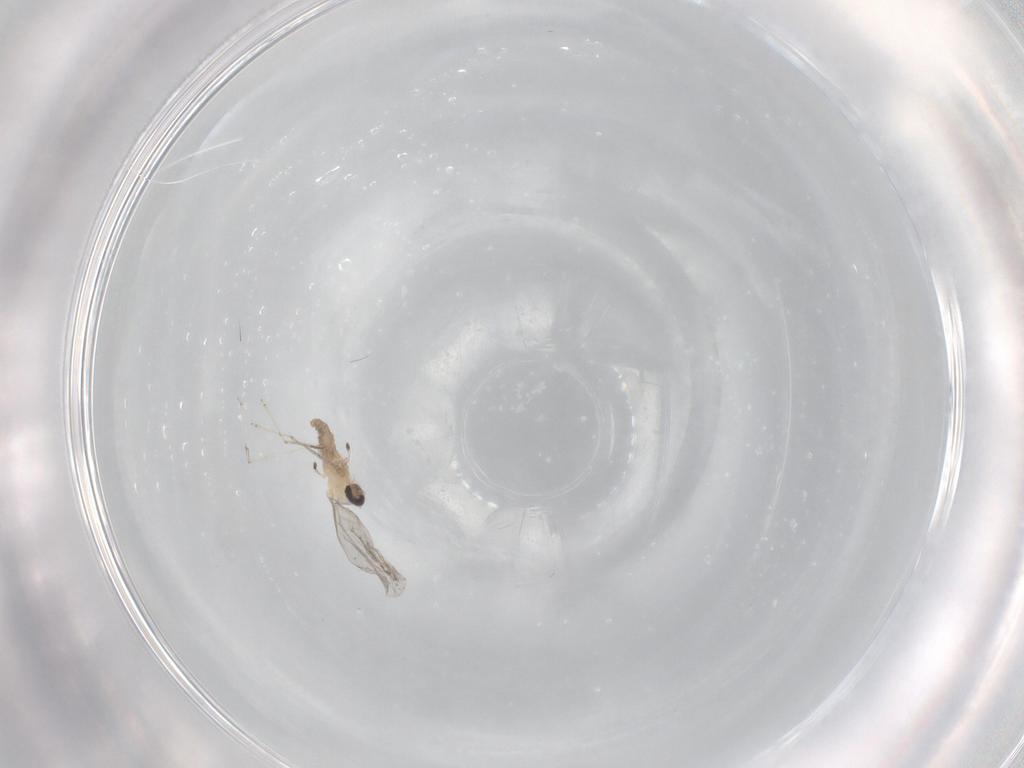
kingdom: Animalia
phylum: Arthropoda
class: Insecta
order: Diptera
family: Cecidomyiidae
